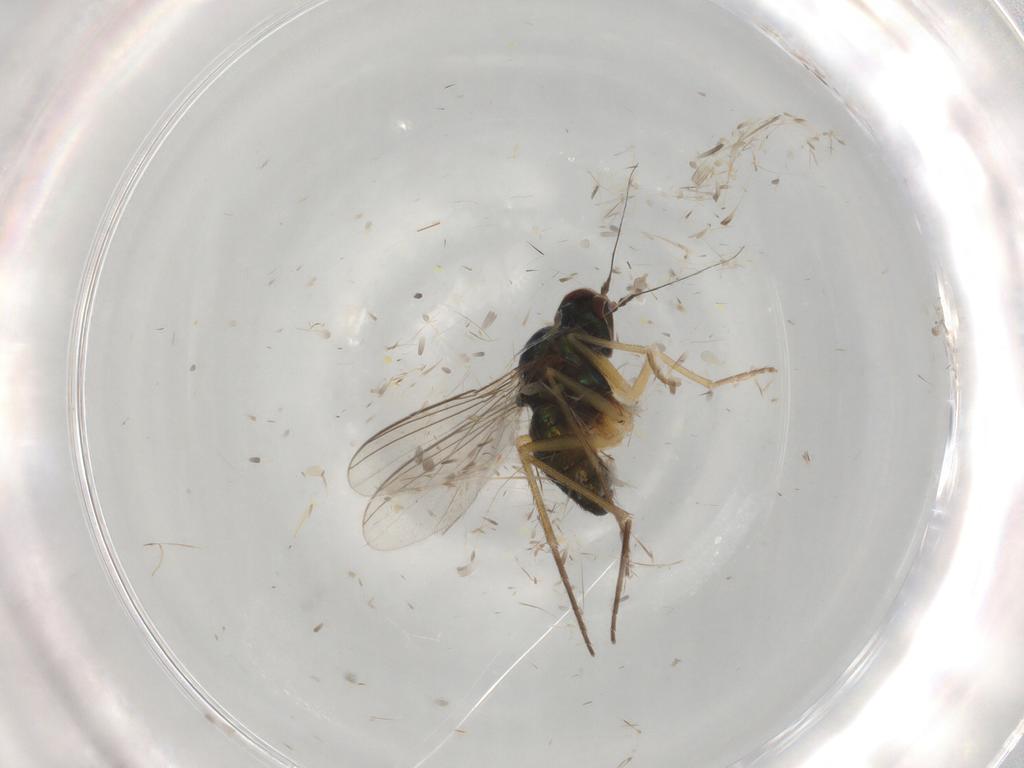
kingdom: Animalia
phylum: Arthropoda
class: Insecta
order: Diptera
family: Dolichopodidae
